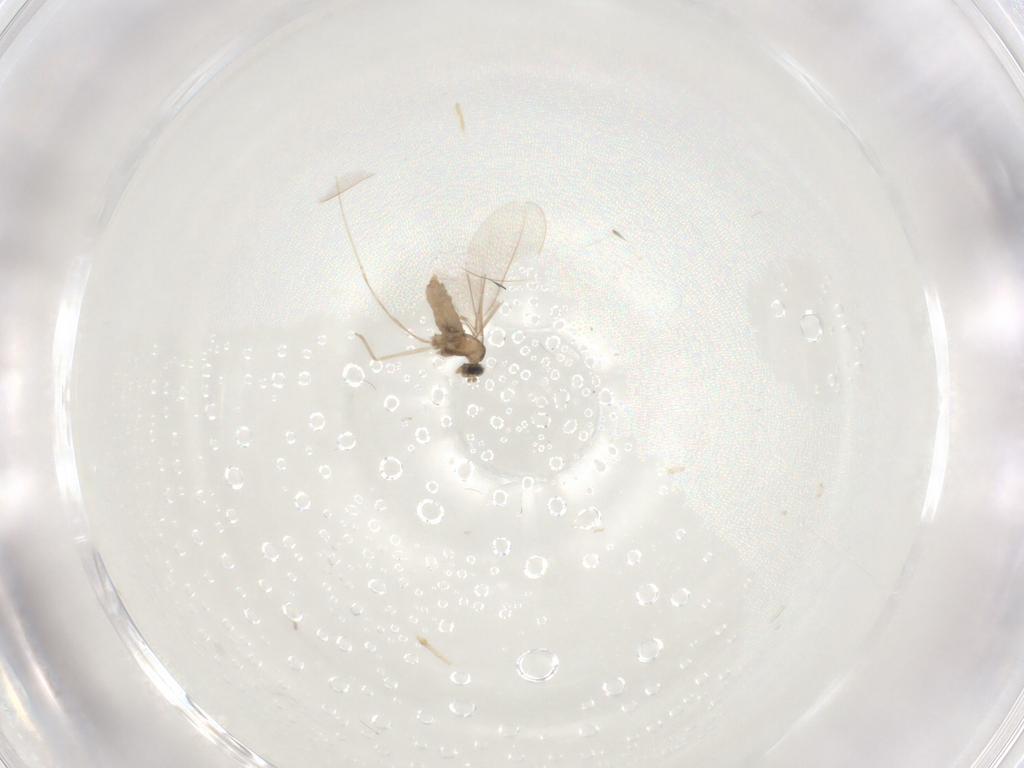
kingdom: Animalia
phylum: Arthropoda
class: Insecta
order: Diptera
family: Cecidomyiidae
